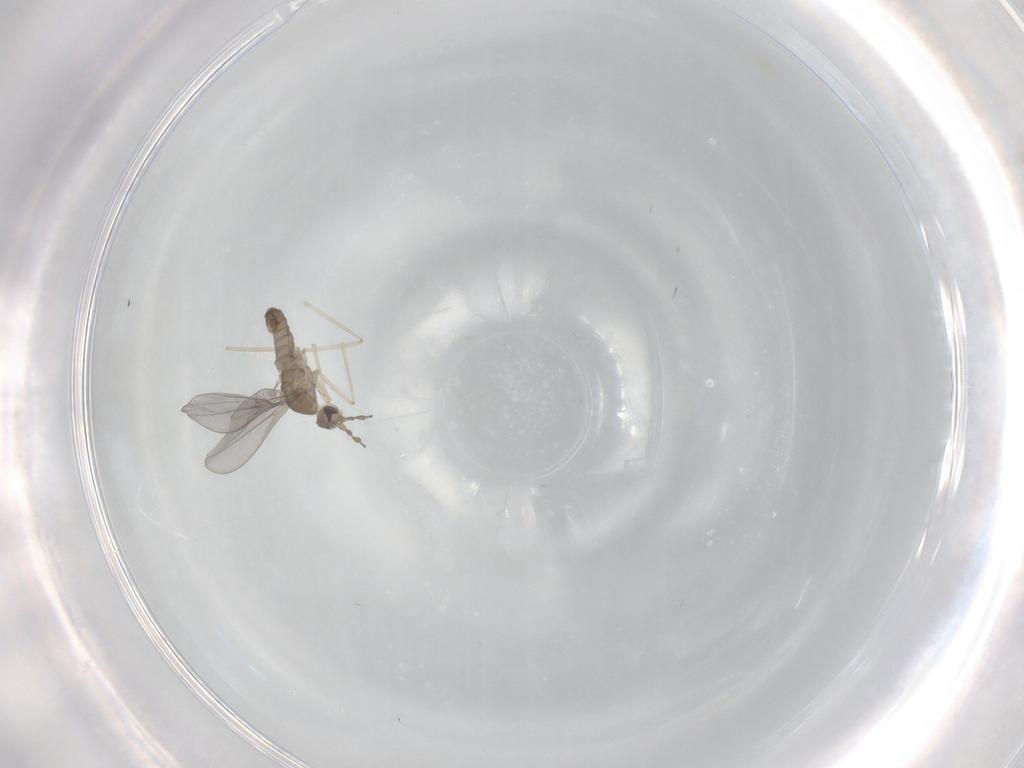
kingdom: Animalia
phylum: Arthropoda
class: Insecta
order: Diptera
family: Cecidomyiidae
